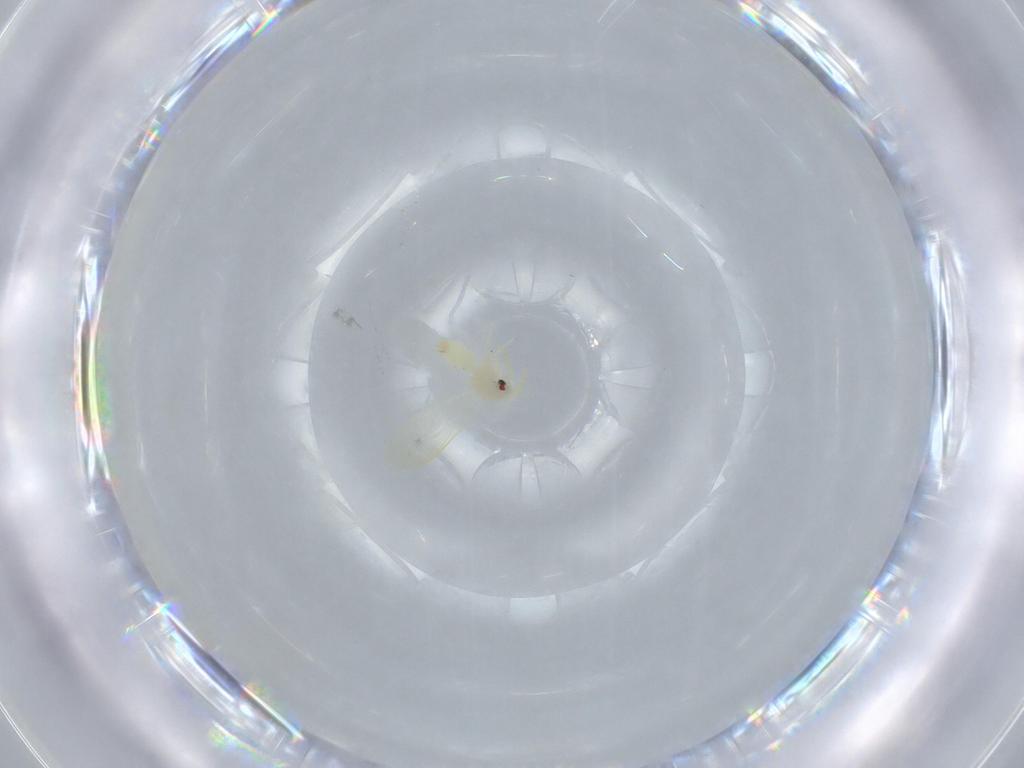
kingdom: Animalia
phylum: Arthropoda
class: Insecta
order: Hemiptera
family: Aleyrodidae
